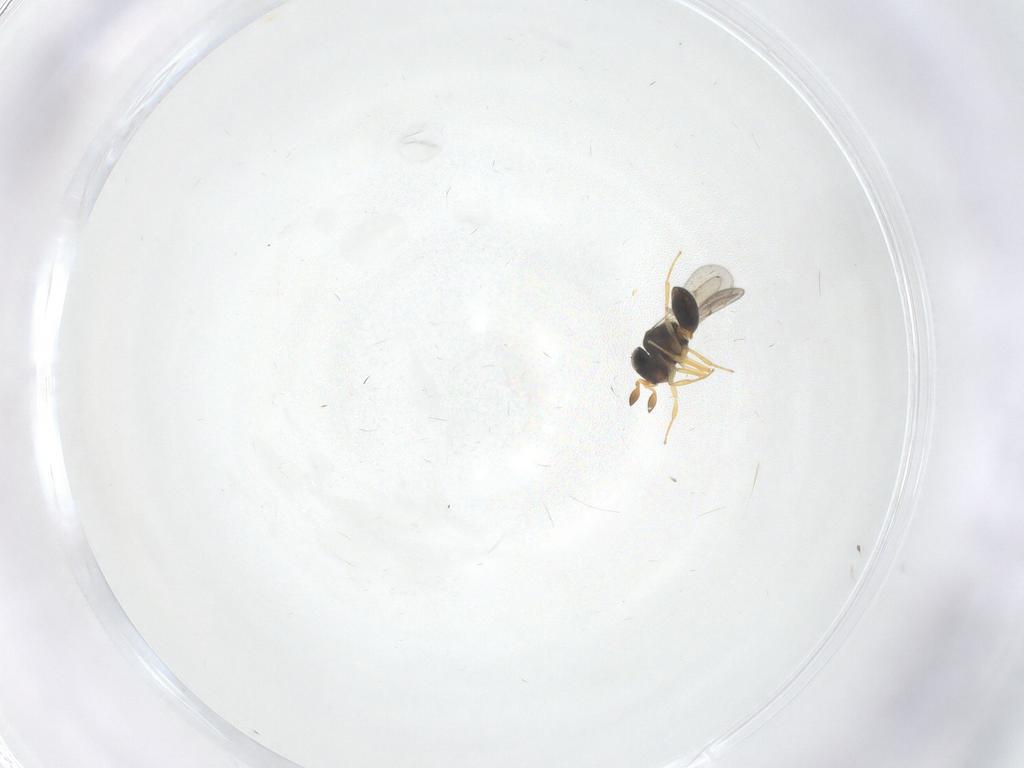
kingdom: Animalia
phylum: Arthropoda
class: Insecta
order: Hymenoptera
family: Scelionidae
